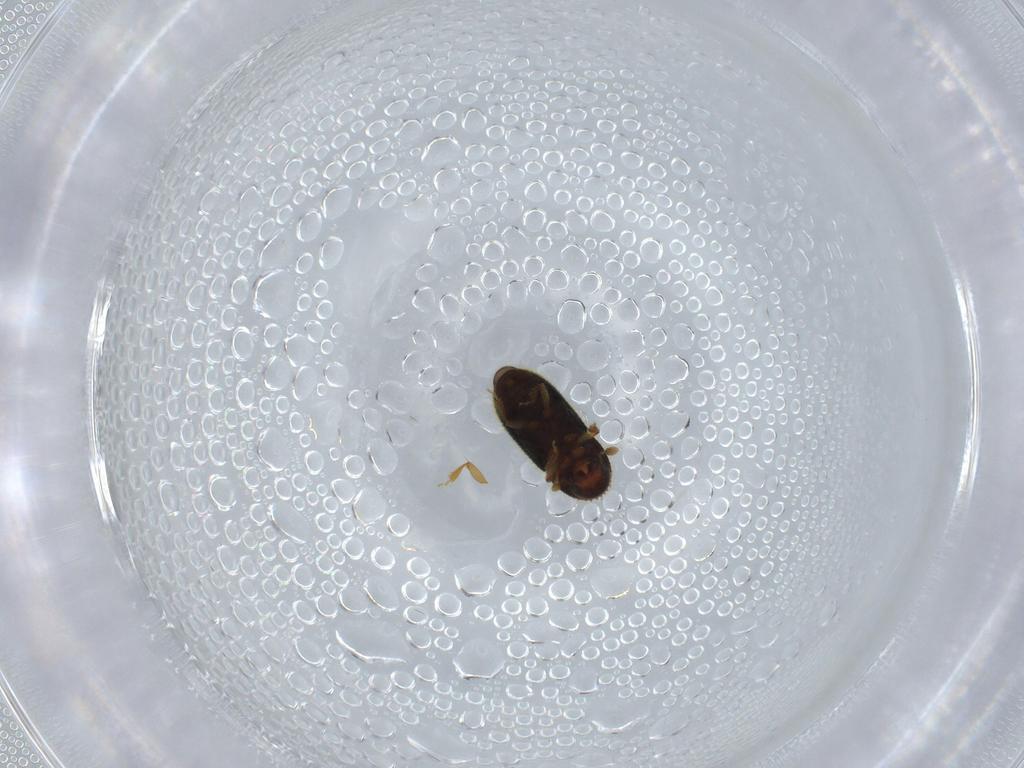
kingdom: Animalia
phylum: Arthropoda
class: Insecta
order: Coleoptera
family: Curculionidae
